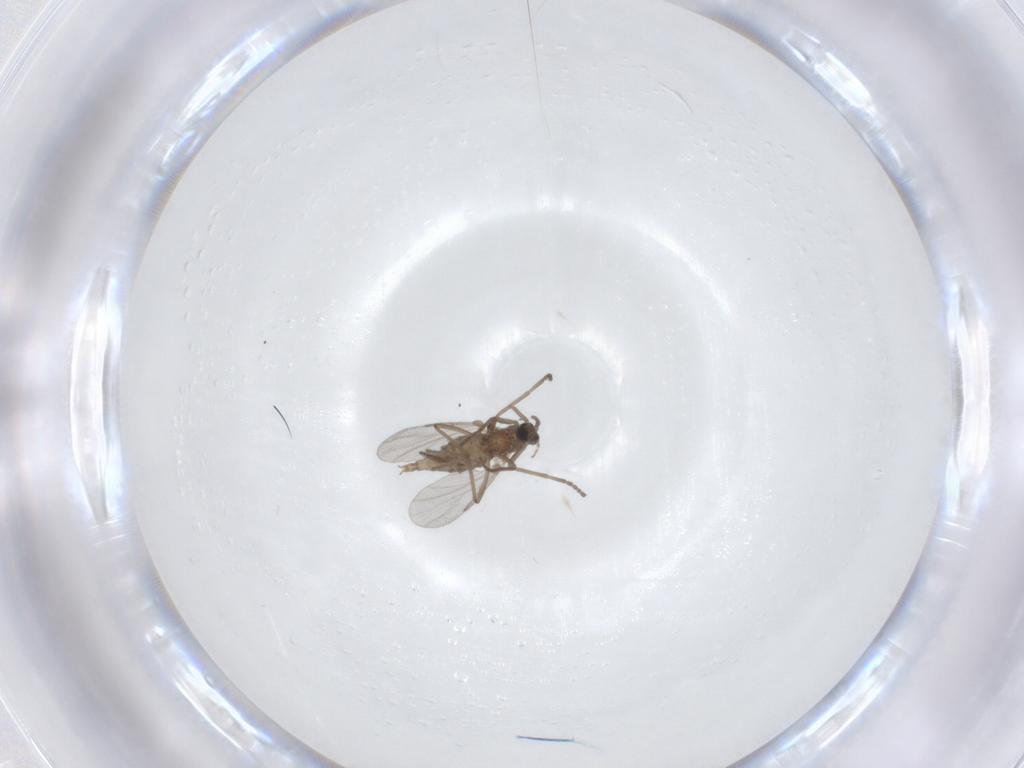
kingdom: Animalia
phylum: Arthropoda
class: Insecta
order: Diptera
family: Cecidomyiidae
